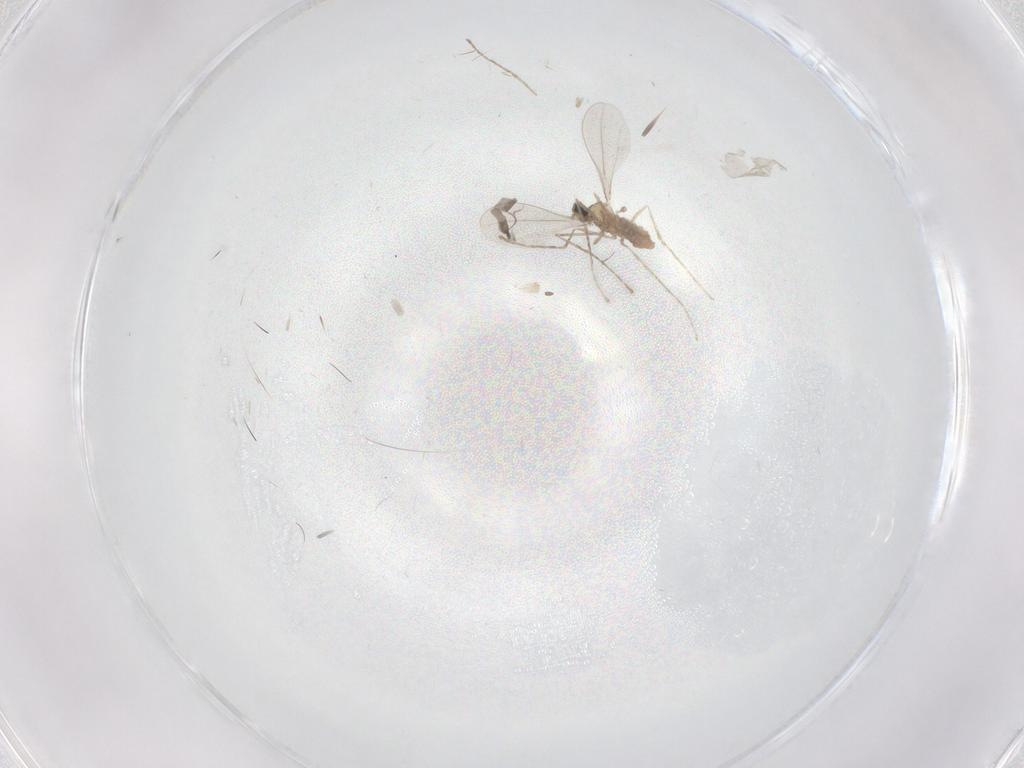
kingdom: Animalia
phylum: Arthropoda
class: Insecta
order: Diptera
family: Cecidomyiidae
